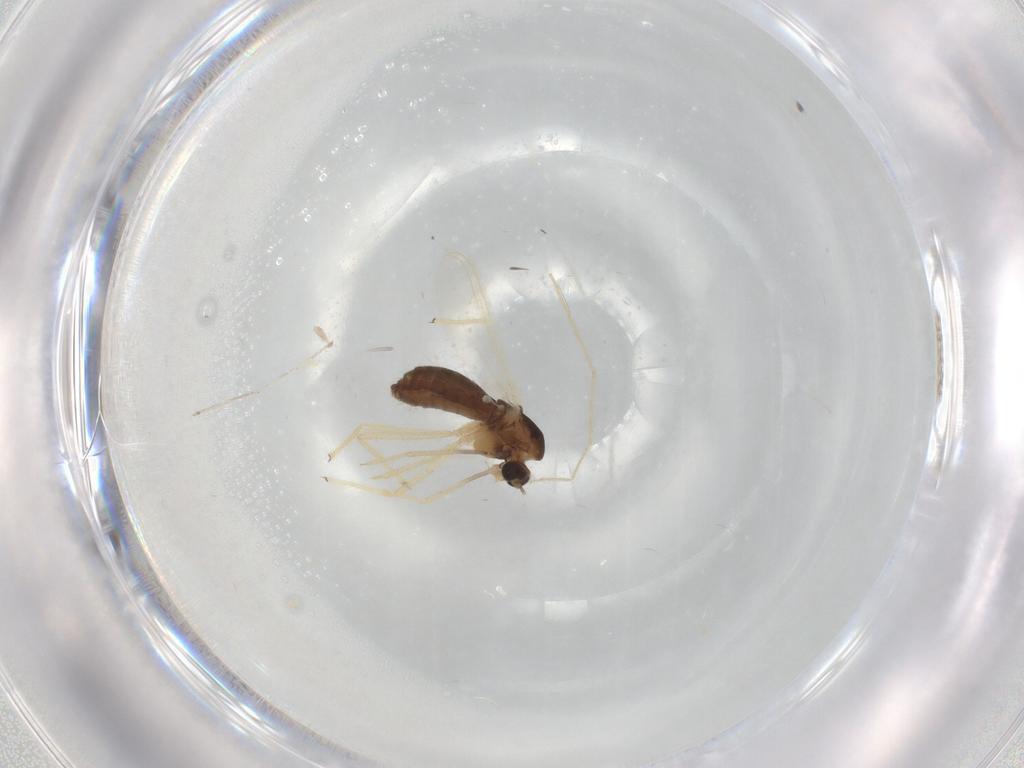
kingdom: Animalia
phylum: Arthropoda
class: Insecta
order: Diptera
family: Chironomidae
